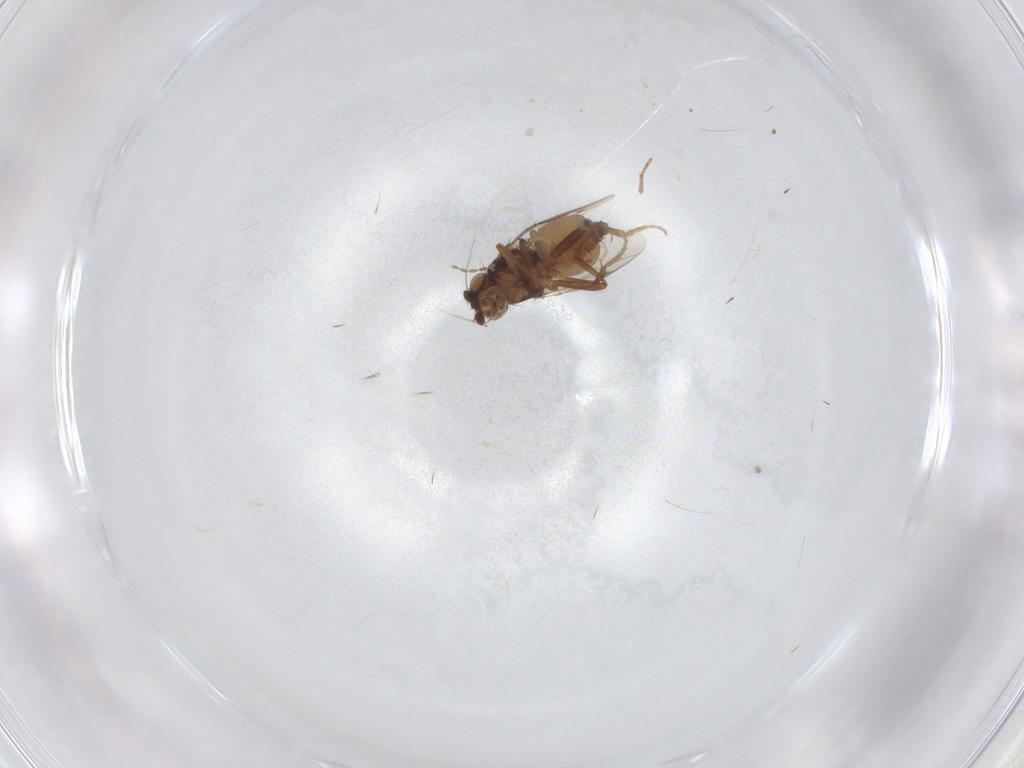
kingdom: Animalia
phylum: Arthropoda
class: Insecta
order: Diptera
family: Sphaeroceridae
